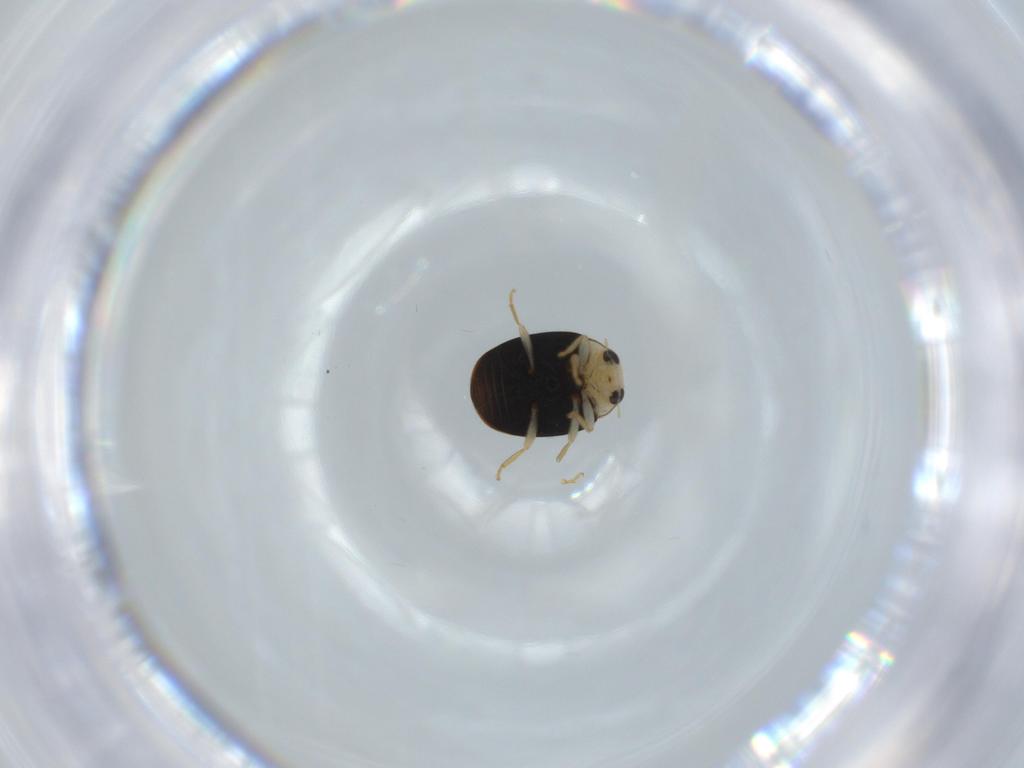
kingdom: Animalia
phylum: Arthropoda
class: Insecta
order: Coleoptera
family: Coccinellidae
